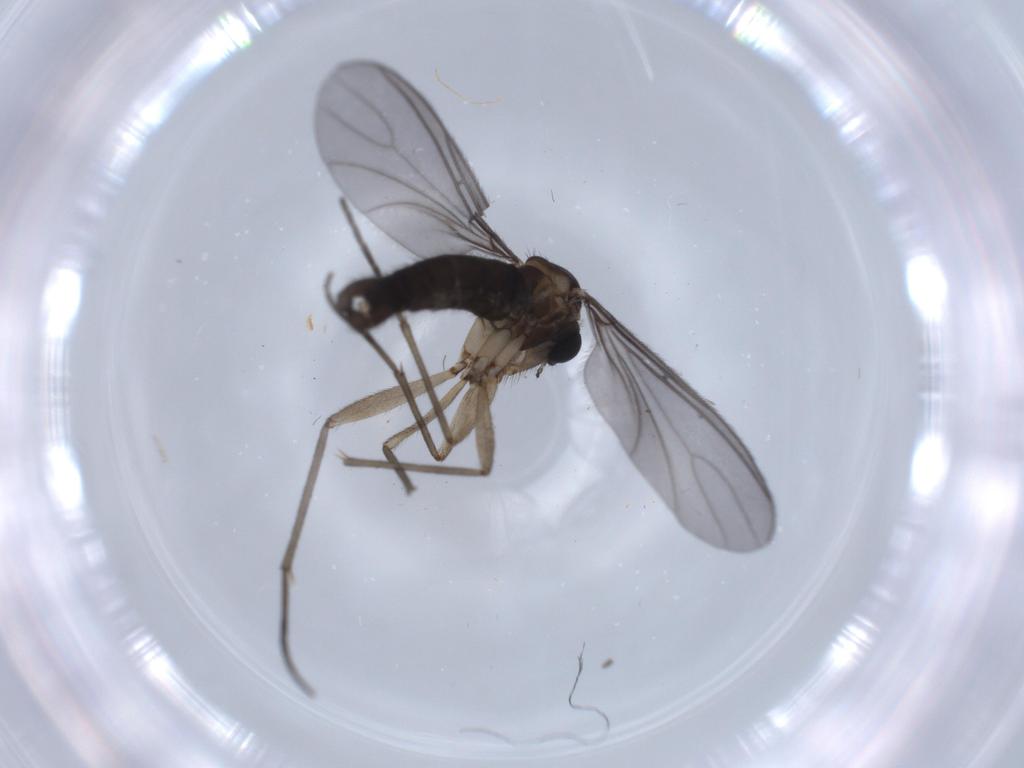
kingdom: Animalia
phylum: Arthropoda
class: Insecta
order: Diptera
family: Sciaridae
